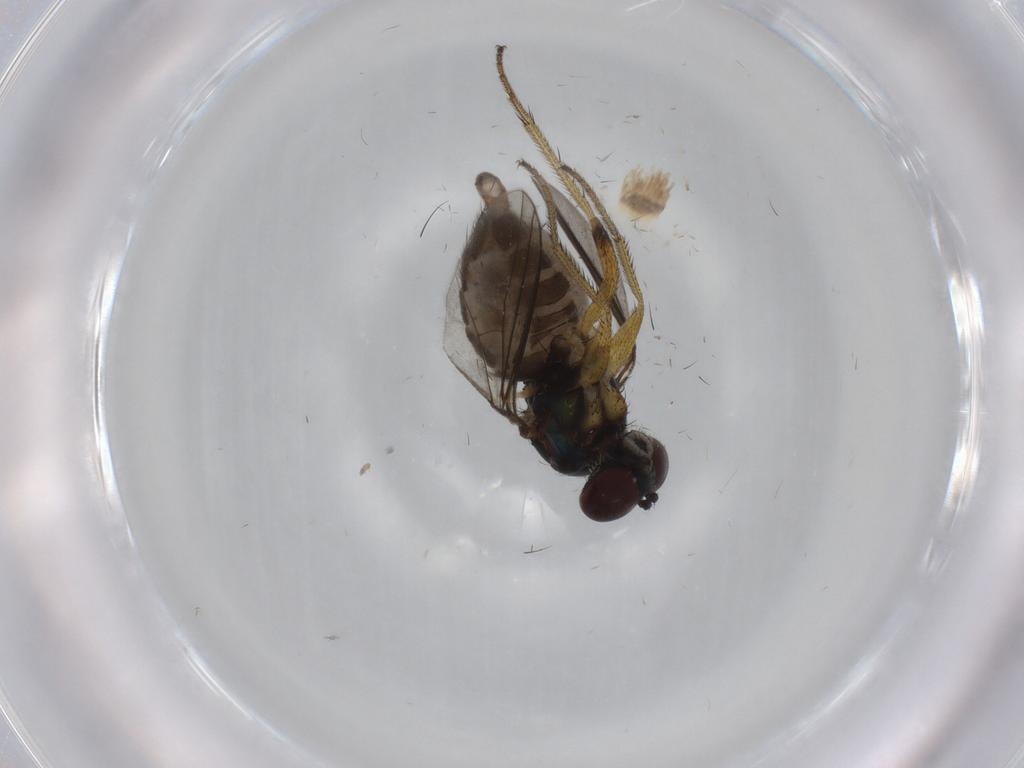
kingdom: Animalia
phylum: Arthropoda
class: Insecta
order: Diptera
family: Dolichopodidae
